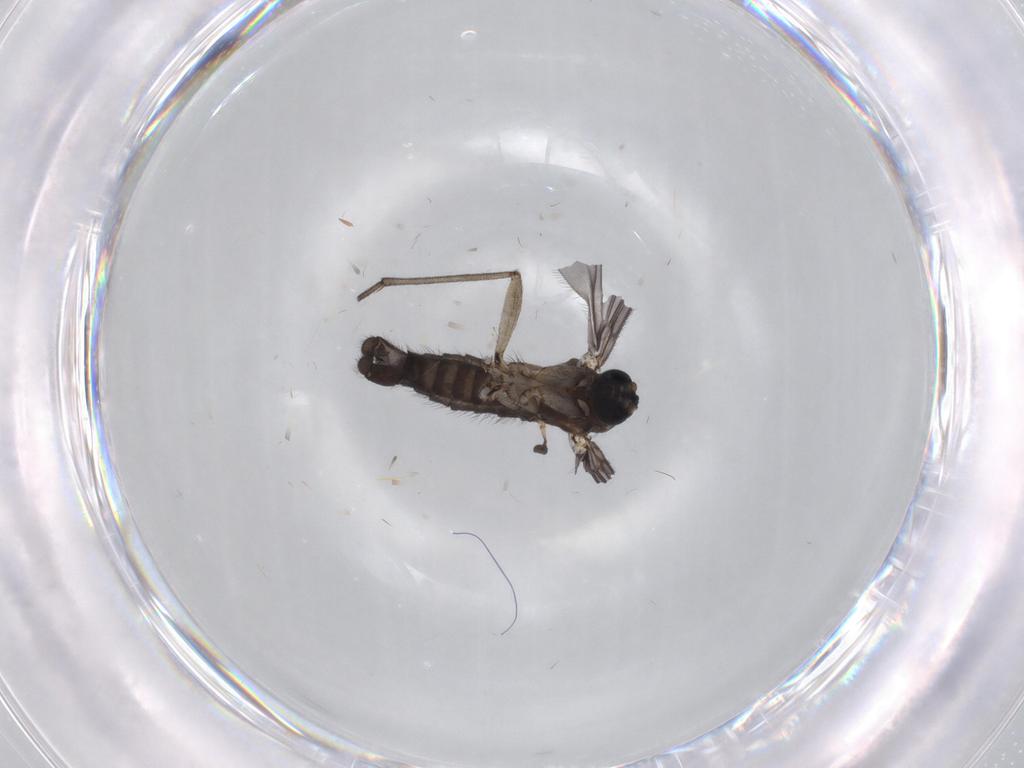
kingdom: Animalia
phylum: Arthropoda
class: Insecta
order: Diptera
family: Sciaridae
